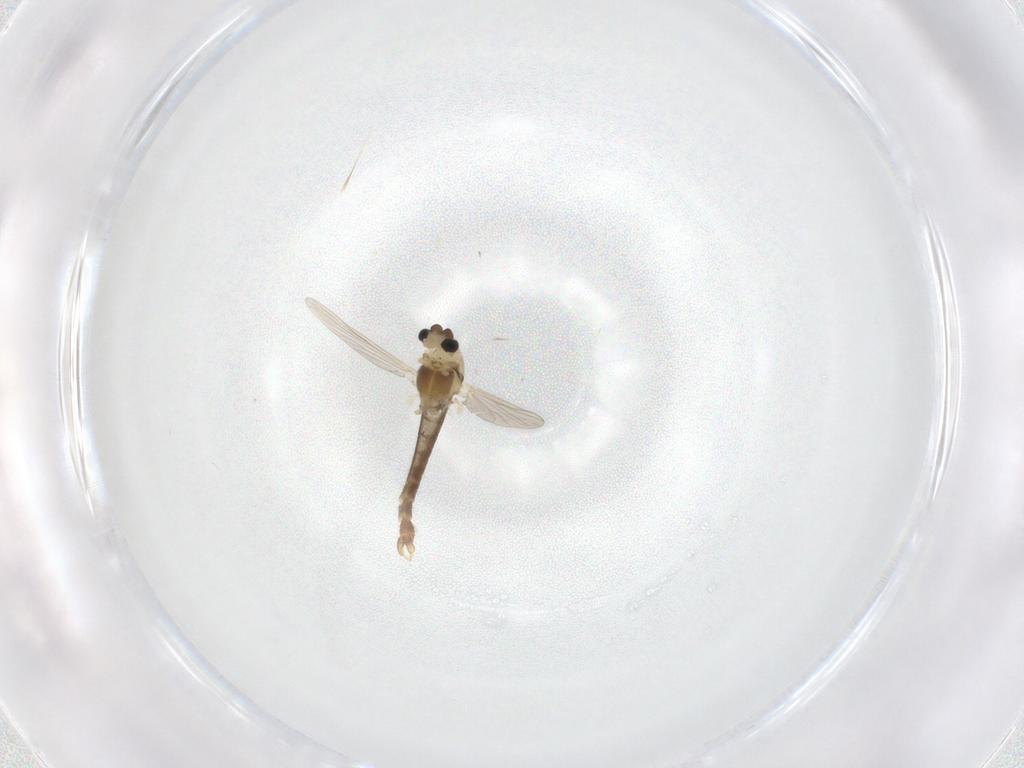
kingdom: Animalia
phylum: Arthropoda
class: Insecta
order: Diptera
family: Chironomidae
